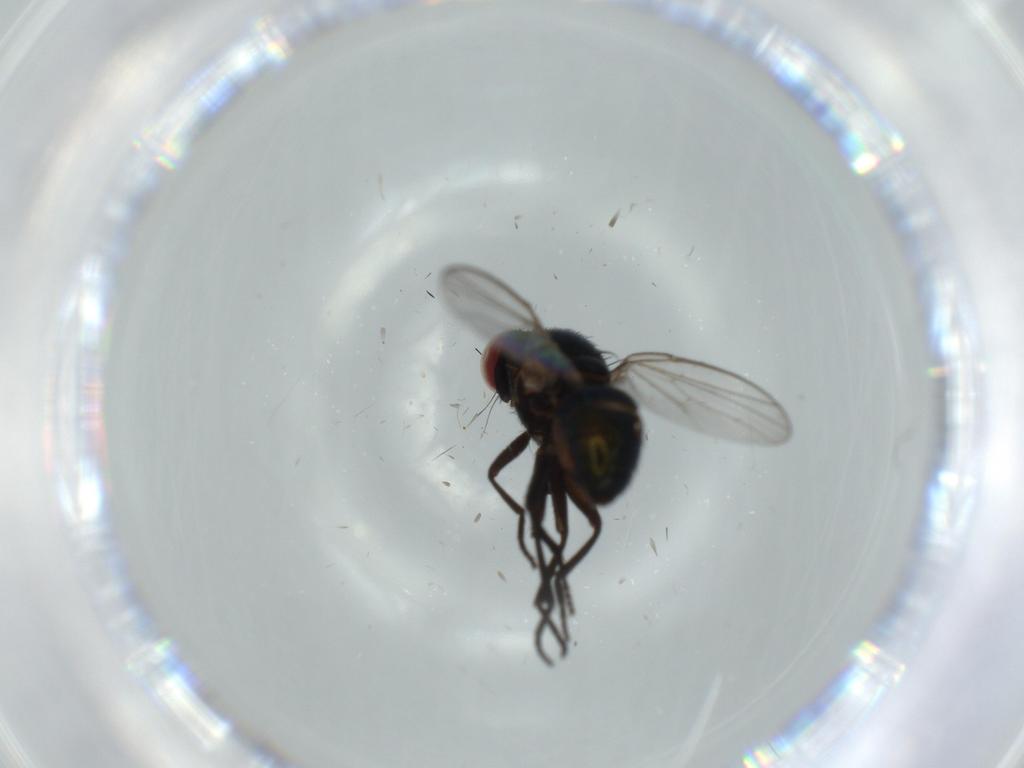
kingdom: Animalia
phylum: Arthropoda
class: Insecta
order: Diptera
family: Agromyzidae
